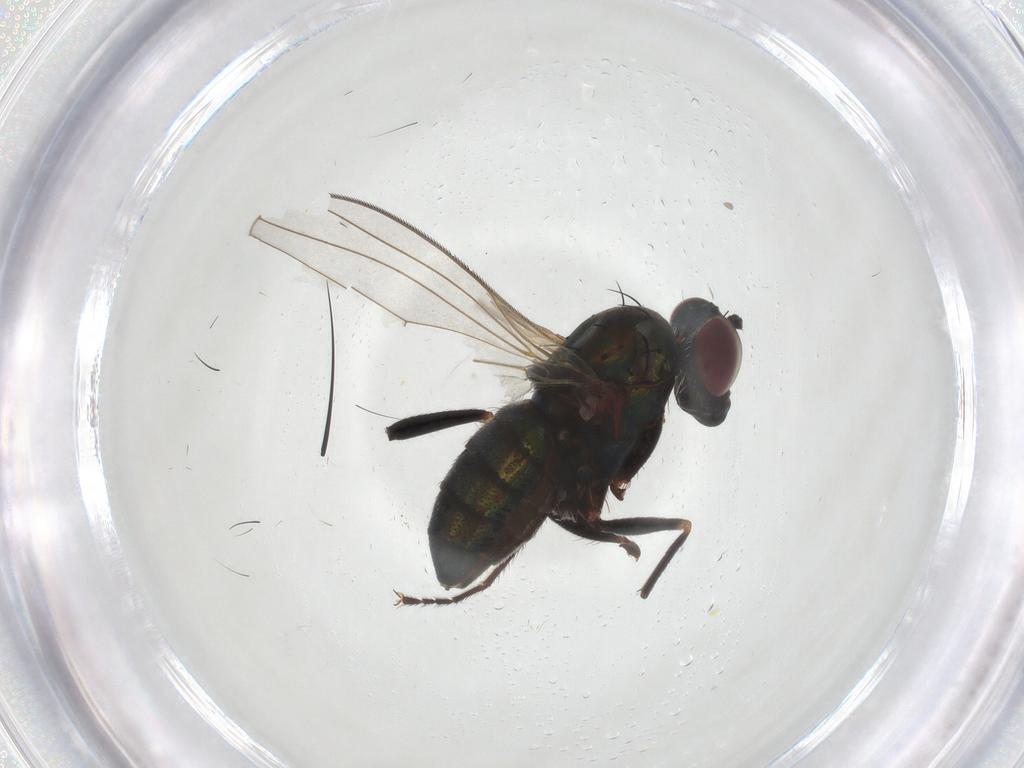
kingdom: Animalia
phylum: Arthropoda
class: Insecta
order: Diptera
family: Dolichopodidae
